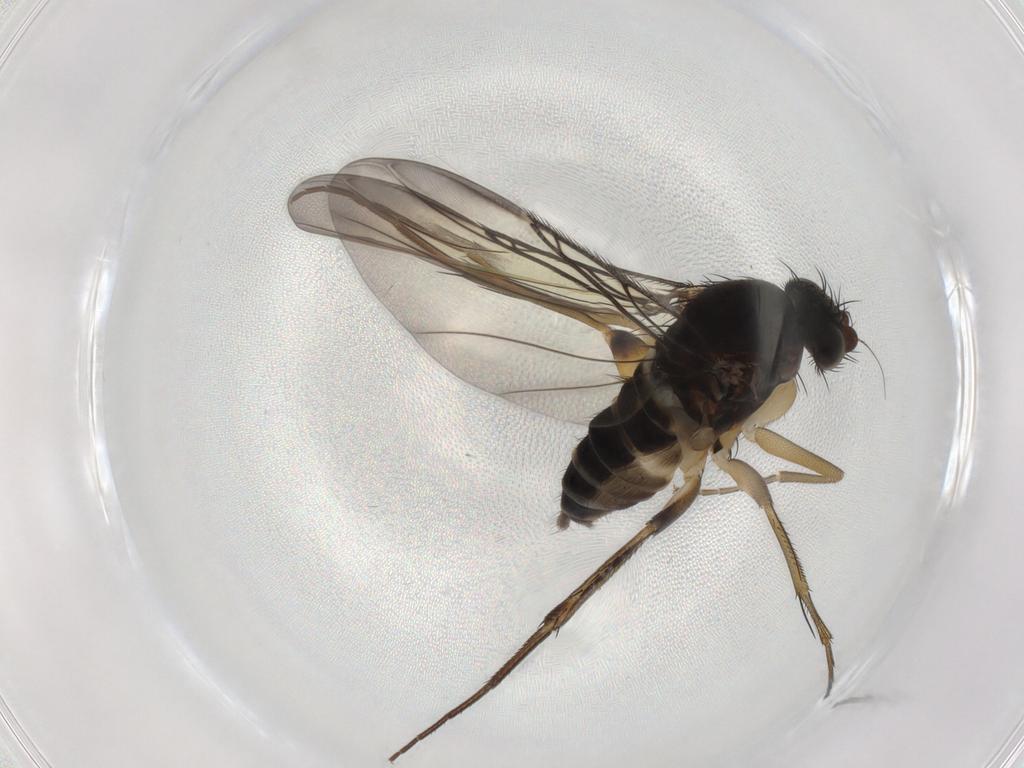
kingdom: Animalia
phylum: Arthropoda
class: Insecta
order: Diptera
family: Phoridae
